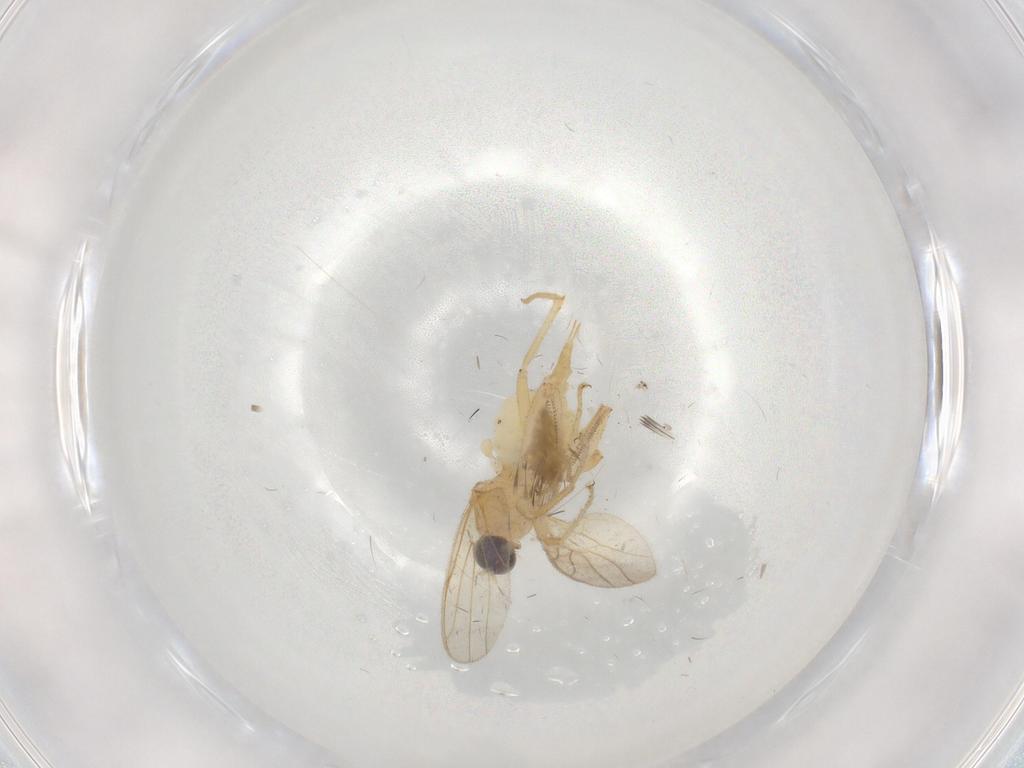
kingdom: Animalia
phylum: Arthropoda
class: Insecta
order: Diptera
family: Cecidomyiidae
